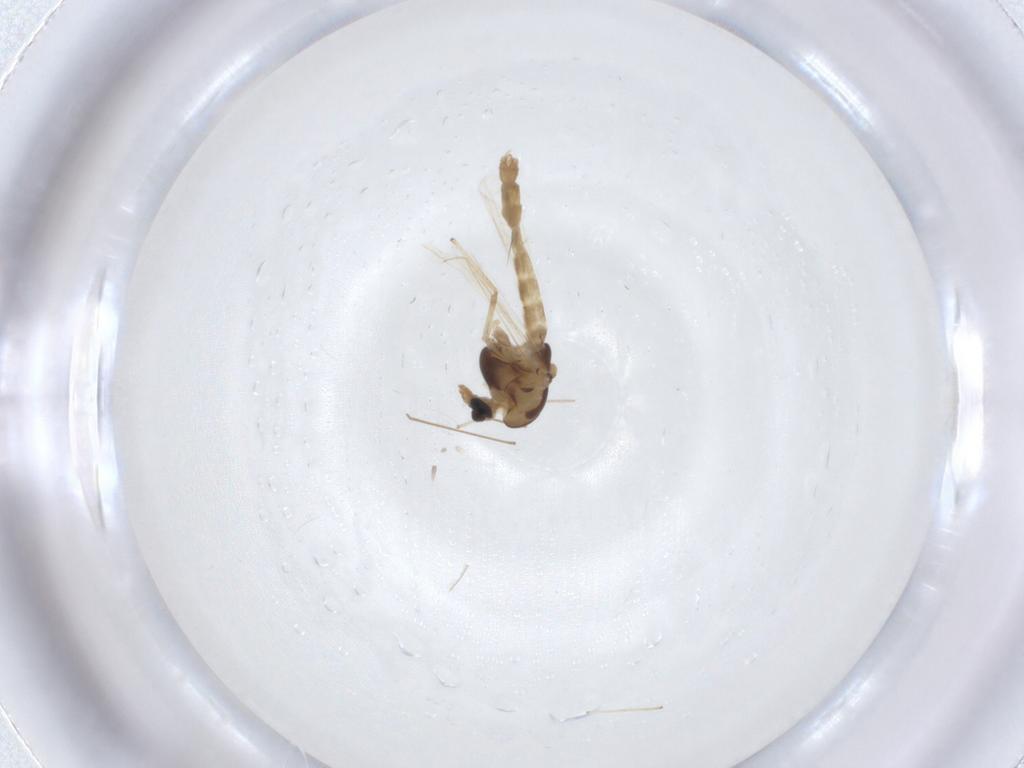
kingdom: Animalia
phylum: Arthropoda
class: Insecta
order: Diptera
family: Chironomidae
